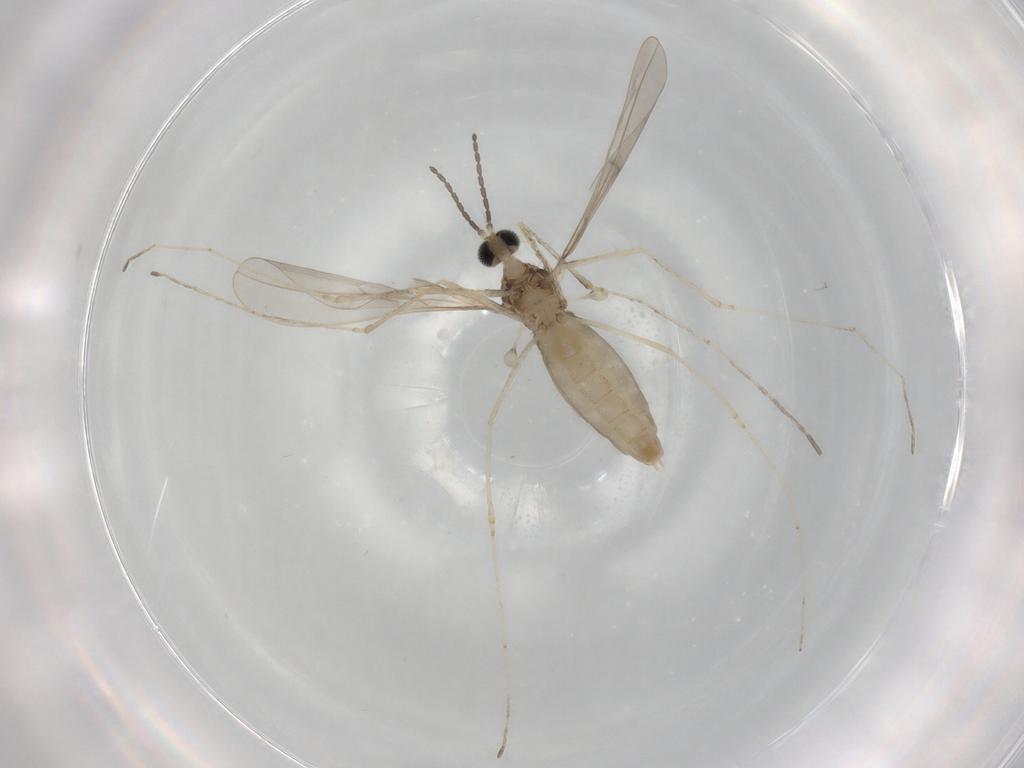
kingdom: Animalia
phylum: Arthropoda
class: Insecta
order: Diptera
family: Cecidomyiidae
